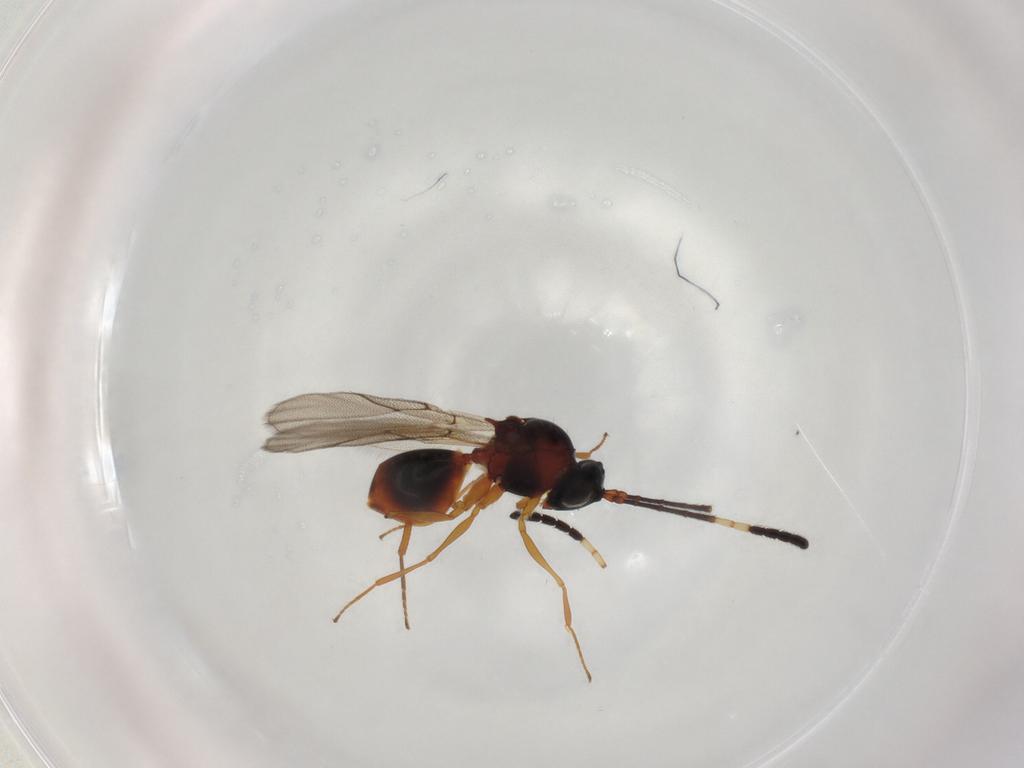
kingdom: Animalia
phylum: Arthropoda
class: Insecta
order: Hymenoptera
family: Figitidae
